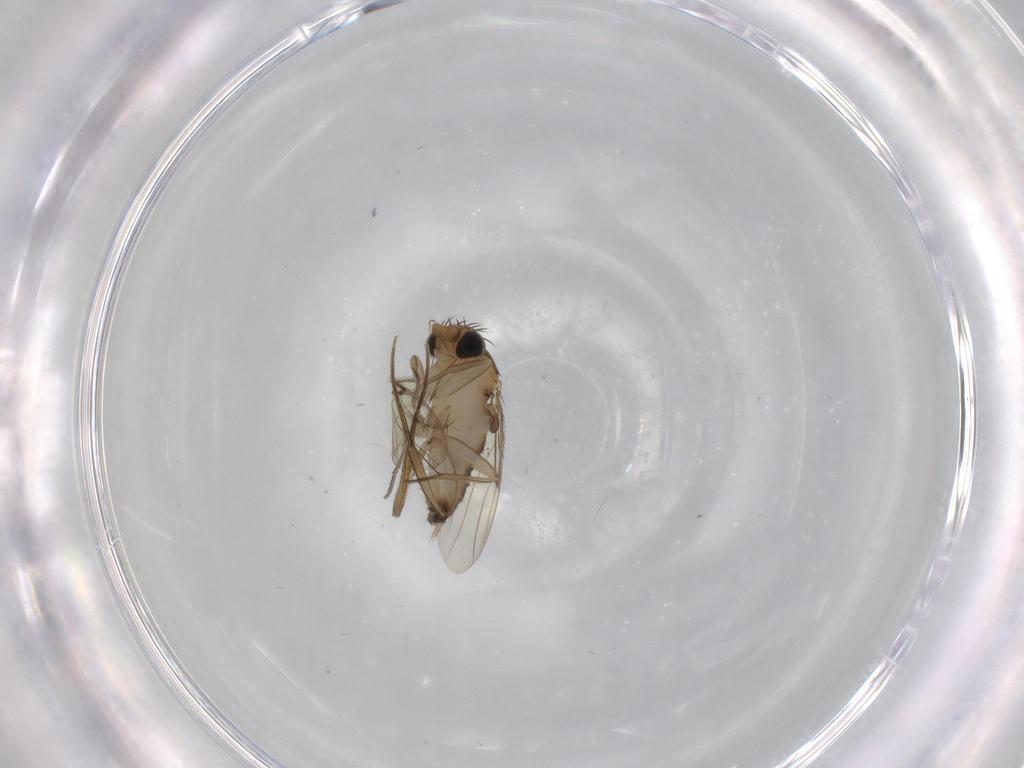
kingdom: Animalia
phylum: Arthropoda
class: Insecta
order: Diptera
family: Phoridae
